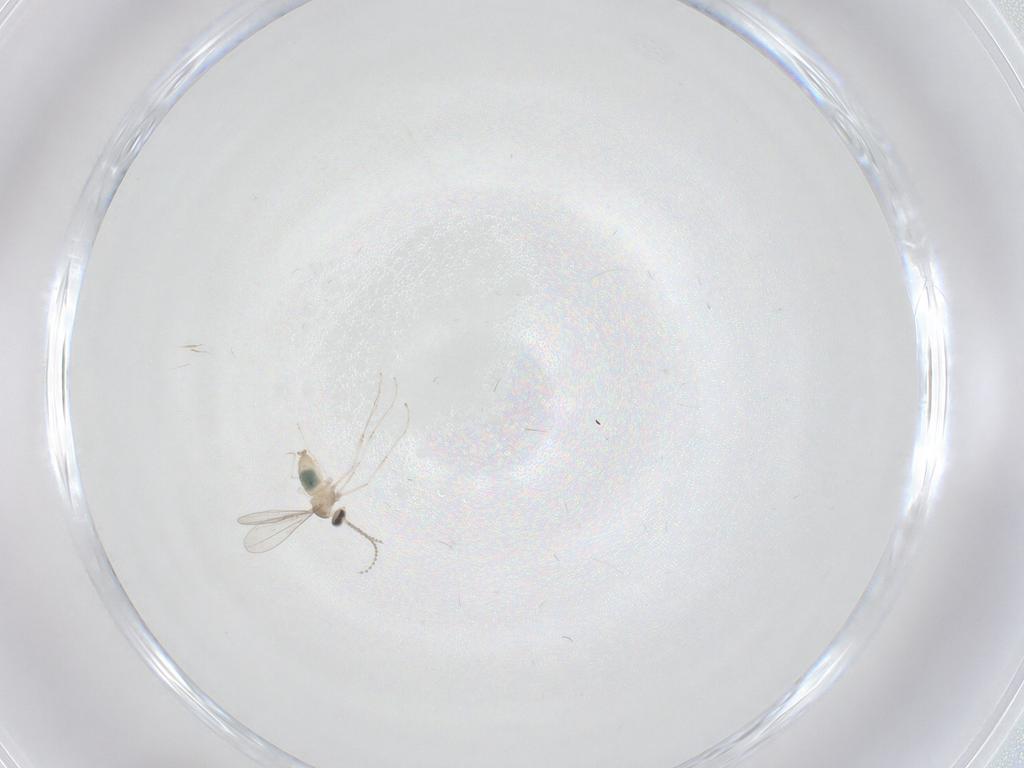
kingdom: Animalia
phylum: Arthropoda
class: Insecta
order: Diptera
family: Cecidomyiidae
